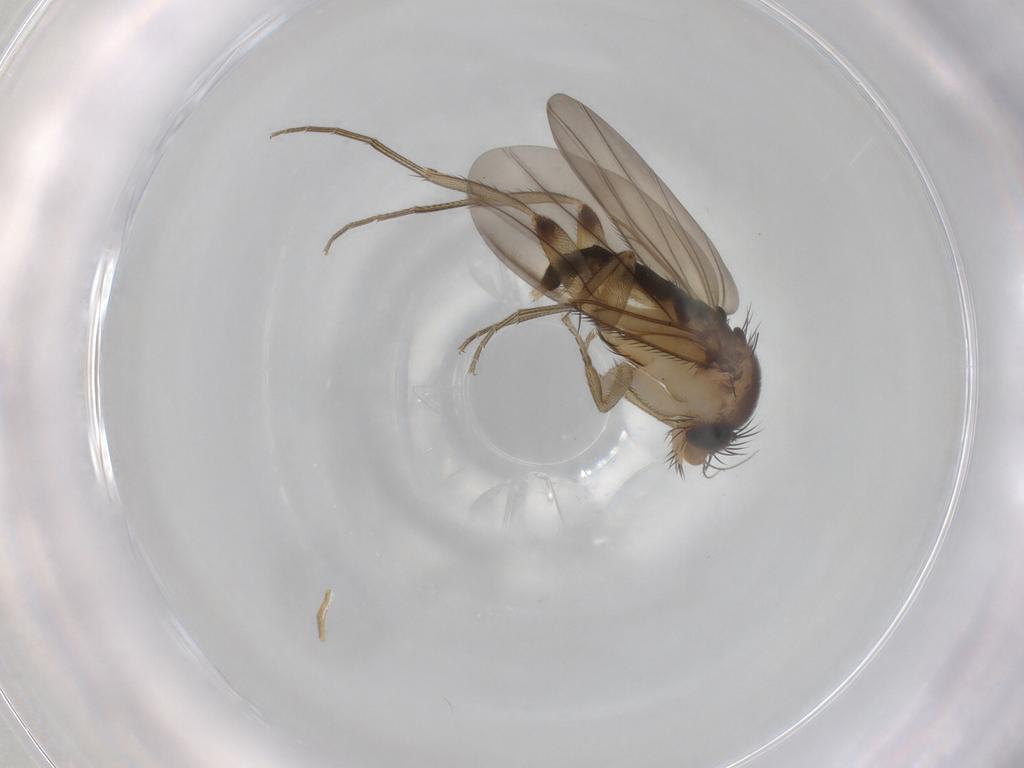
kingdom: Animalia
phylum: Arthropoda
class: Insecta
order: Diptera
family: Phoridae
